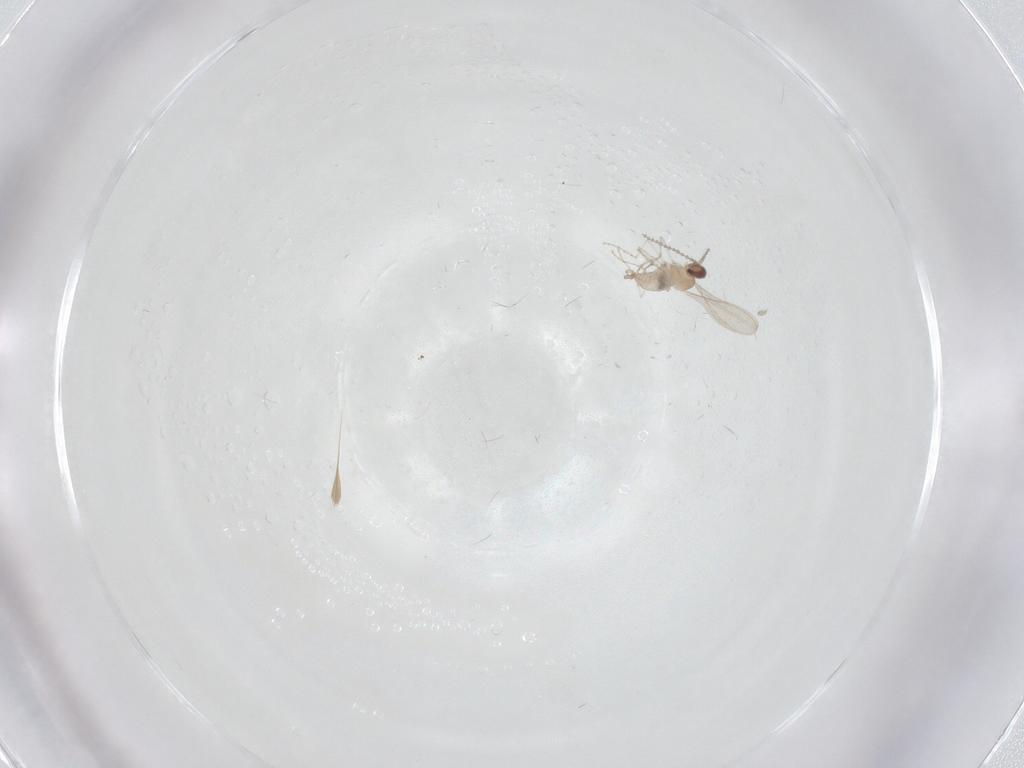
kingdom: Animalia
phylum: Arthropoda
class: Insecta
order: Diptera
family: Cecidomyiidae
